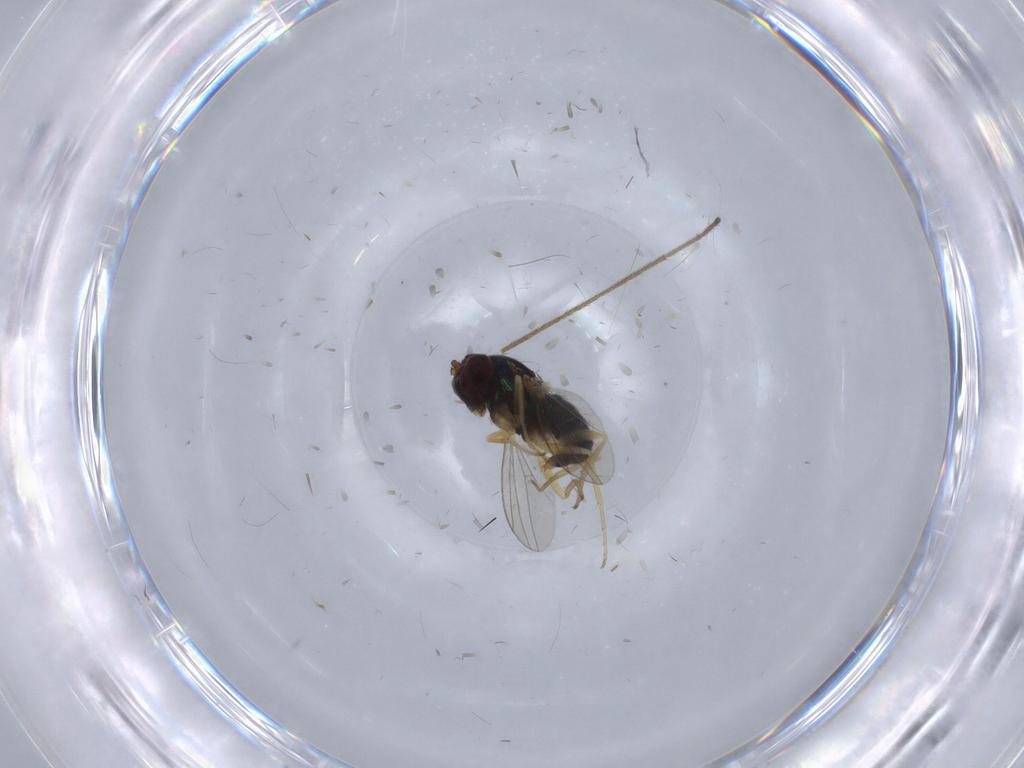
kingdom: Animalia
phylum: Arthropoda
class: Insecta
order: Diptera
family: Dolichopodidae
